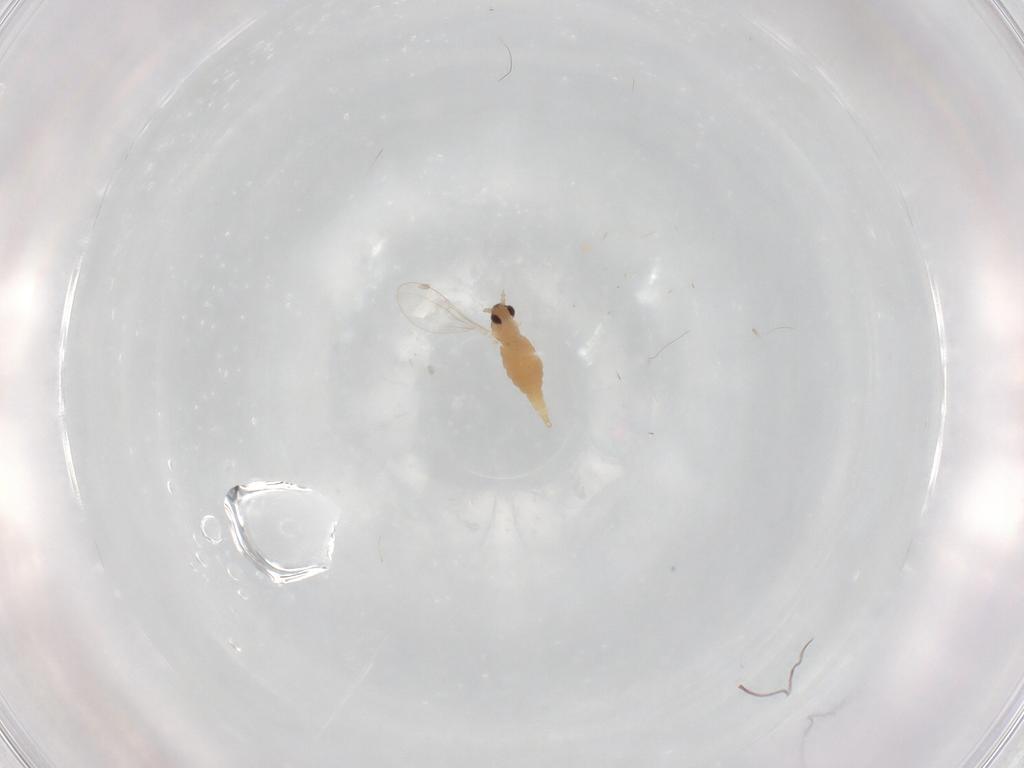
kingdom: Animalia
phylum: Arthropoda
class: Insecta
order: Diptera
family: Cecidomyiidae
